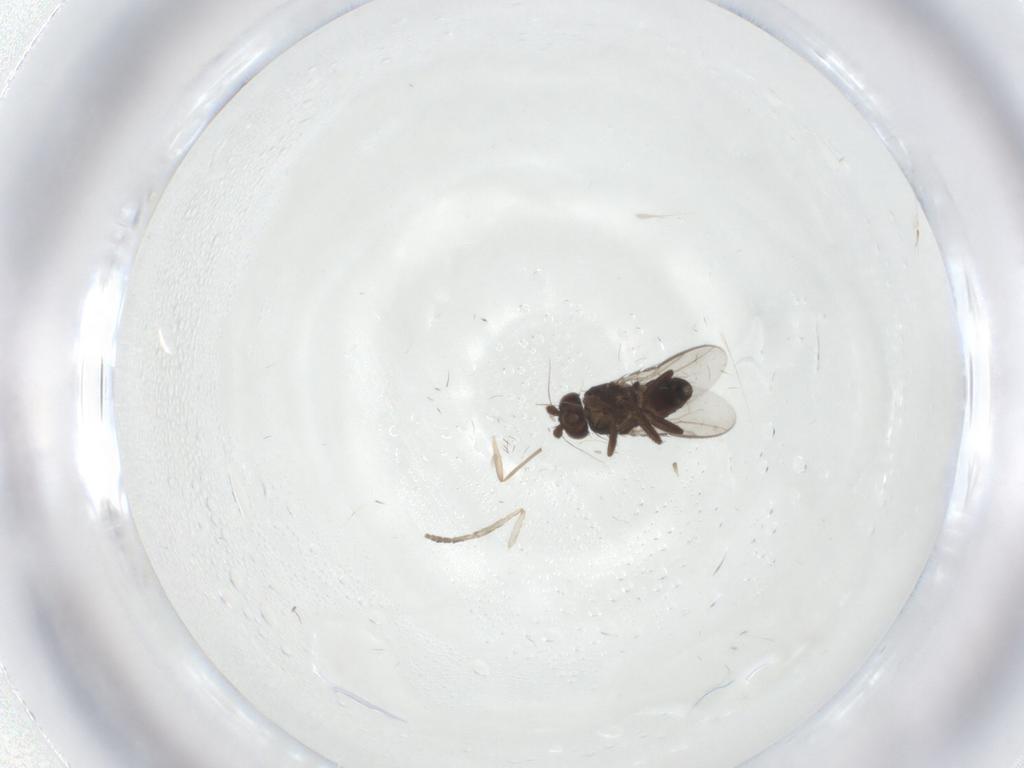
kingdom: Animalia
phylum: Arthropoda
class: Insecta
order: Diptera
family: Sphaeroceridae
